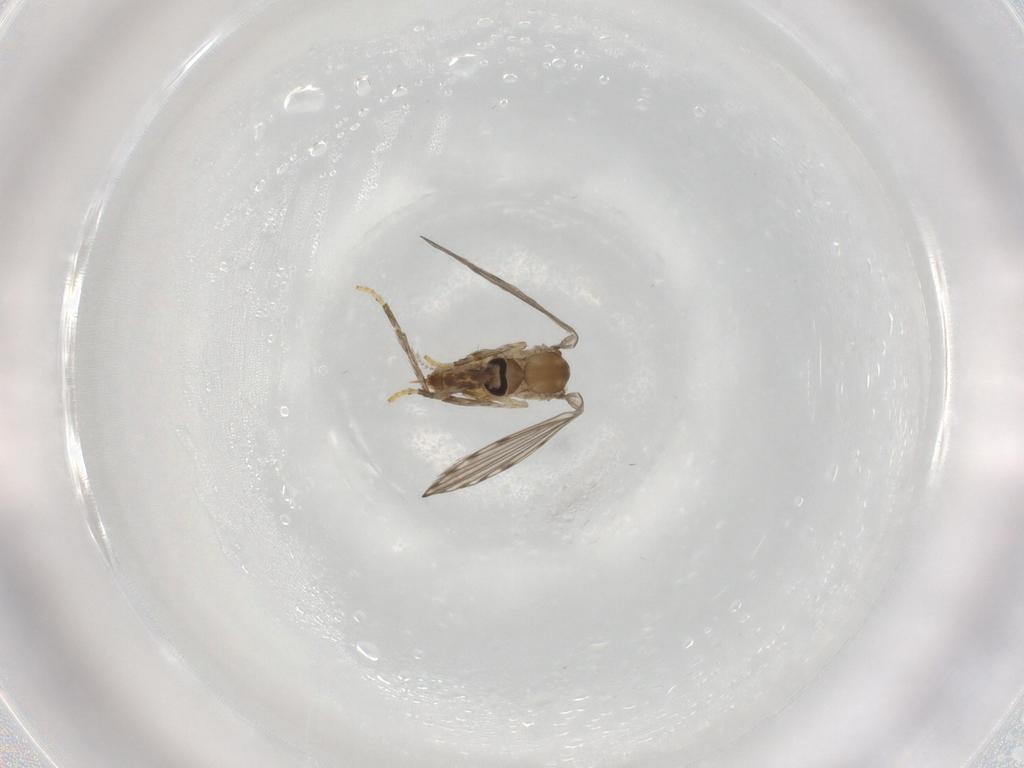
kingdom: Animalia
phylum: Arthropoda
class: Insecta
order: Diptera
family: Psychodidae
